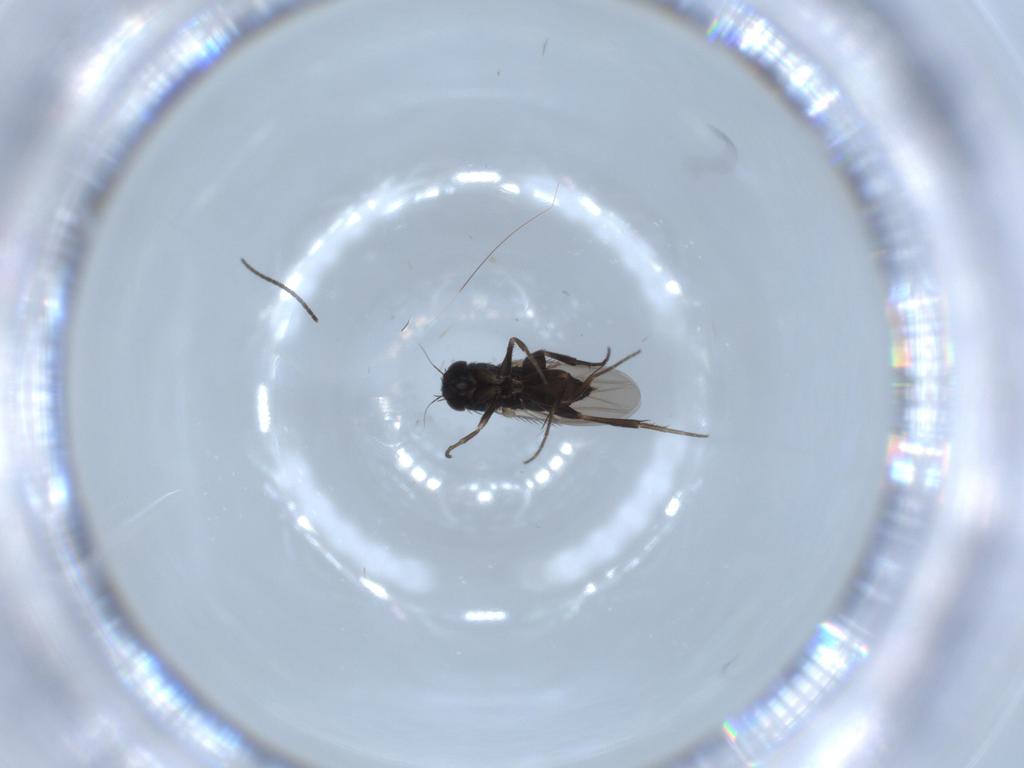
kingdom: Animalia
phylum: Arthropoda
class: Insecta
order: Diptera
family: Phoridae
